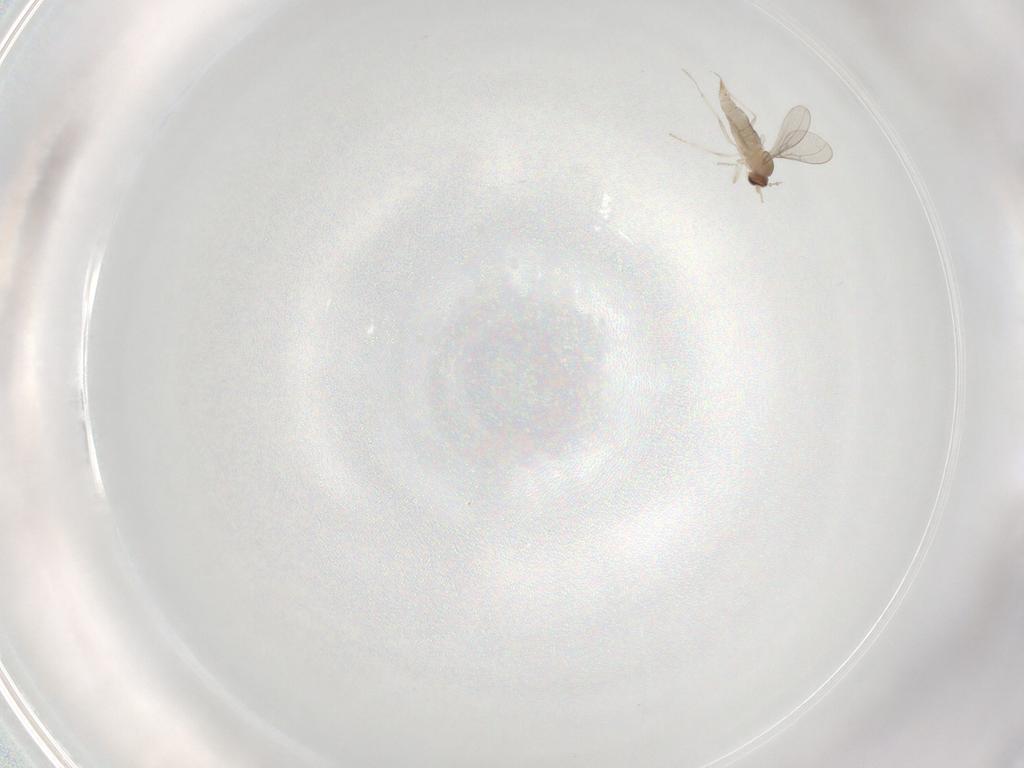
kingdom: Animalia
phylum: Arthropoda
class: Insecta
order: Diptera
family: Cecidomyiidae
